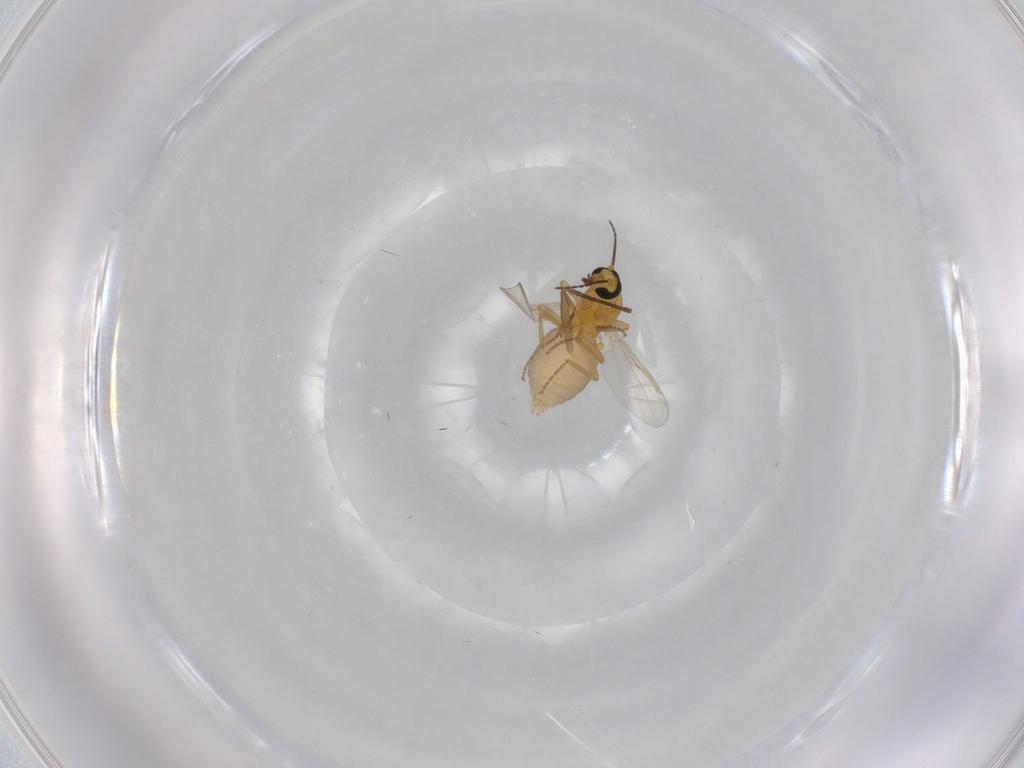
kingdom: Animalia
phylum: Arthropoda
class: Insecta
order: Diptera
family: Ceratopogonidae
